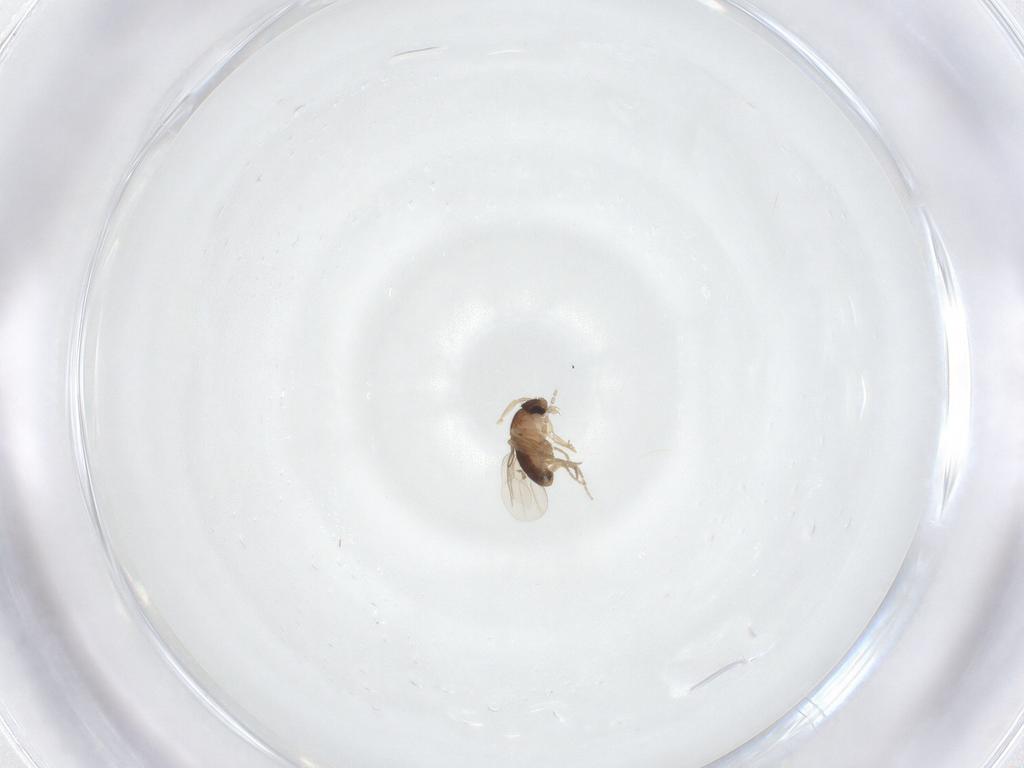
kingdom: Animalia
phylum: Arthropoda
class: Insecta
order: Diptera
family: Phoridae
